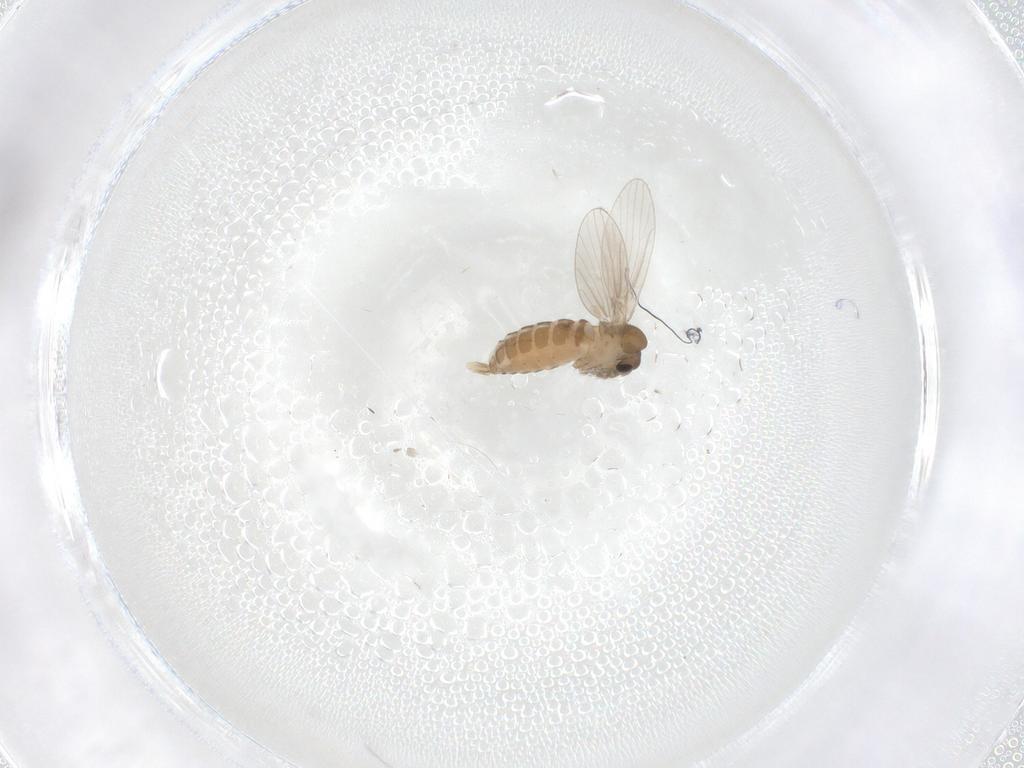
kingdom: Animalia
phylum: Arthropoda
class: Insecta
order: Diptera
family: Psychodidae
